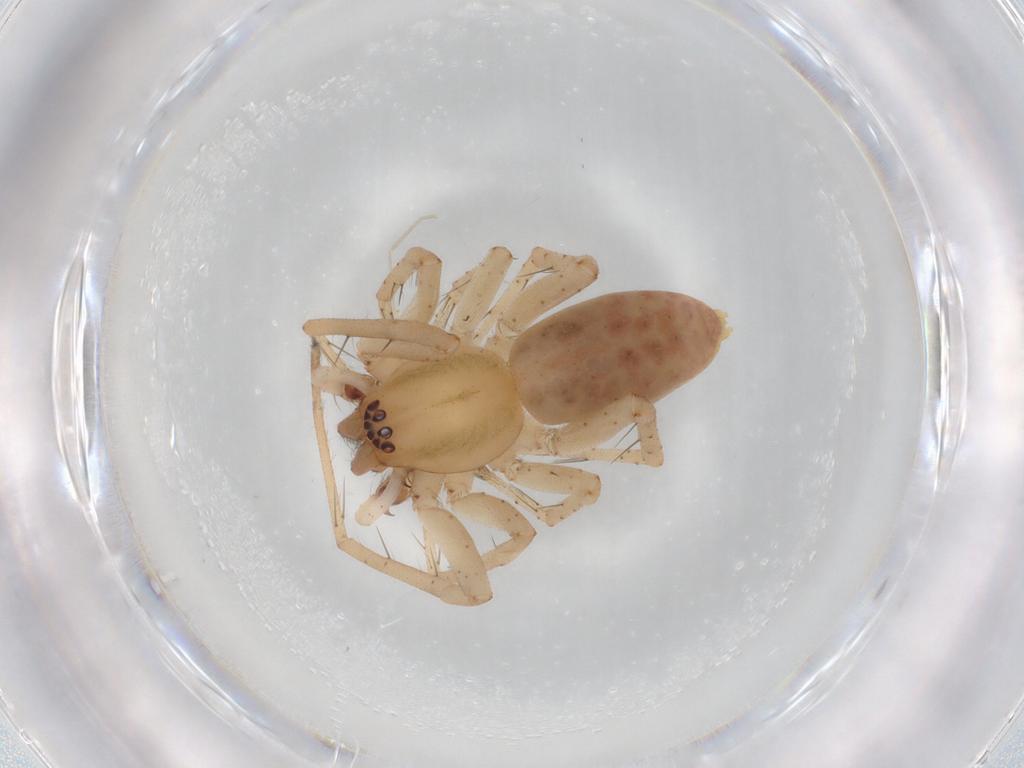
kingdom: Animalia
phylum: Arthropoda
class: Arachnida
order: Araneae
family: Anyphaenidae
